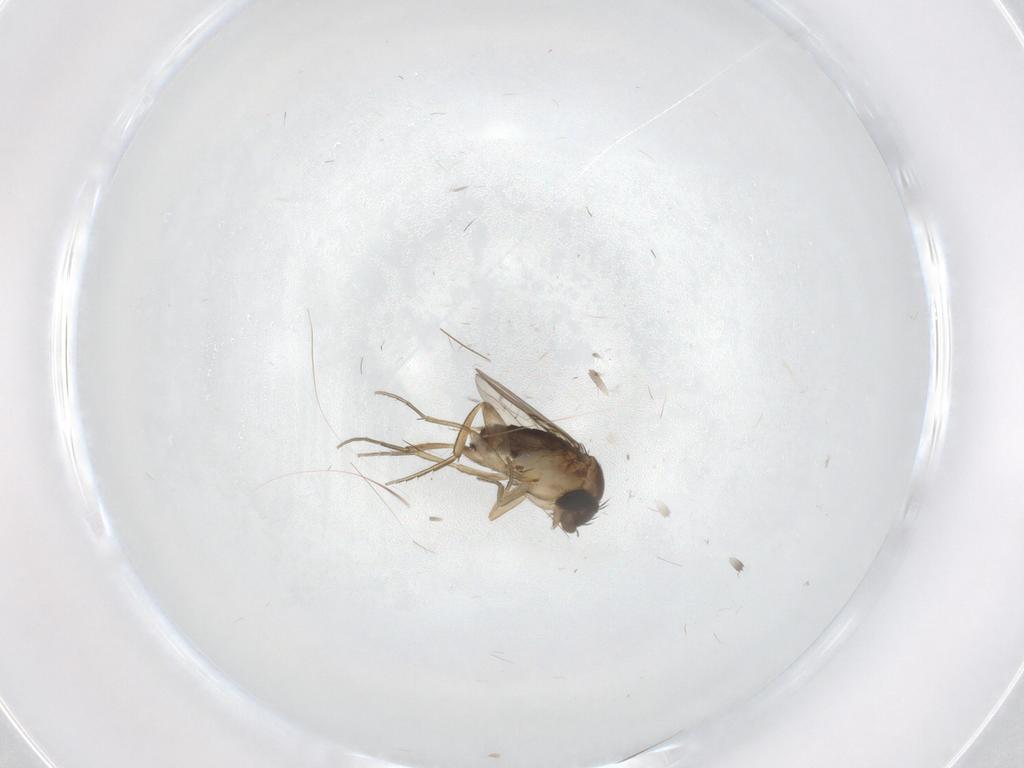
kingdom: Animalia
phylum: Arthropoda
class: Insecta
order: Diptera
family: Phoridae
